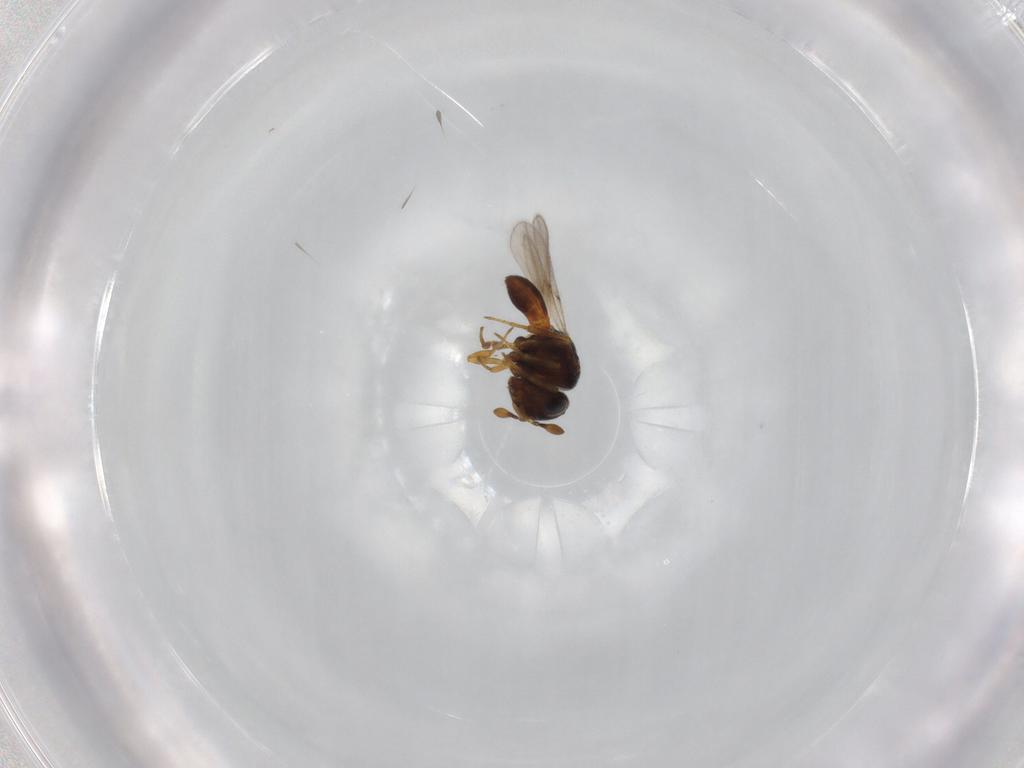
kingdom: Animalia
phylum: Arthropoda
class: Insecta
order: Hymenoptera
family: Scelionidae
